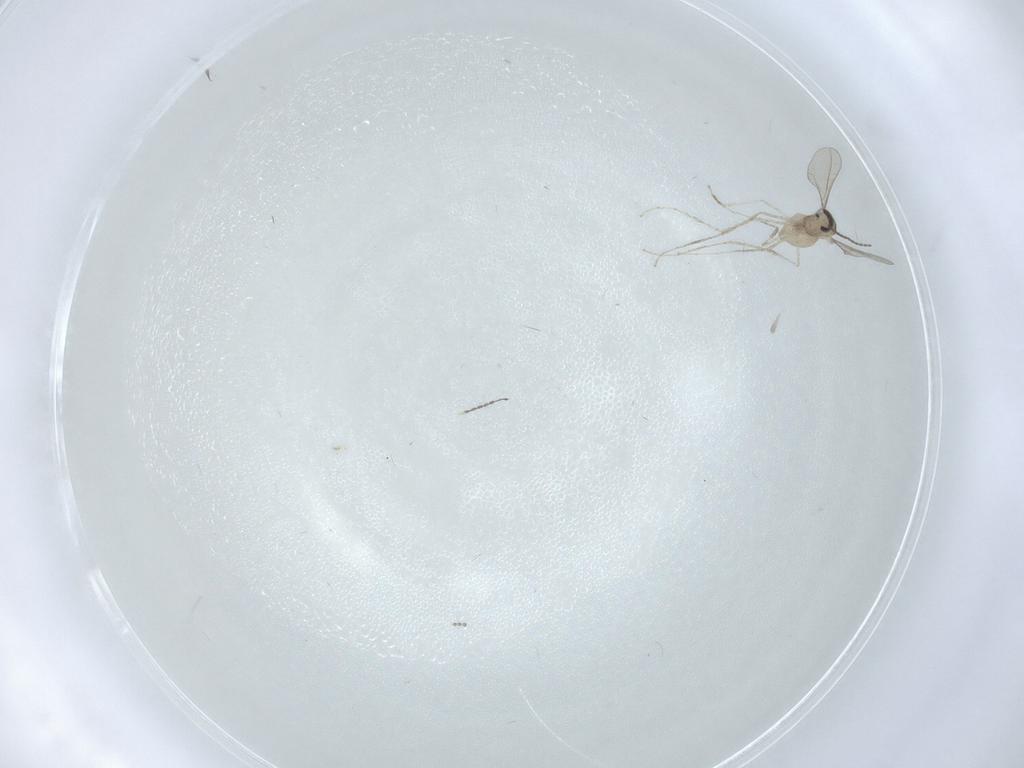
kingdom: Animalia
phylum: Arthropoda
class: Insecta
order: Diptera
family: Cecidomyiidae
